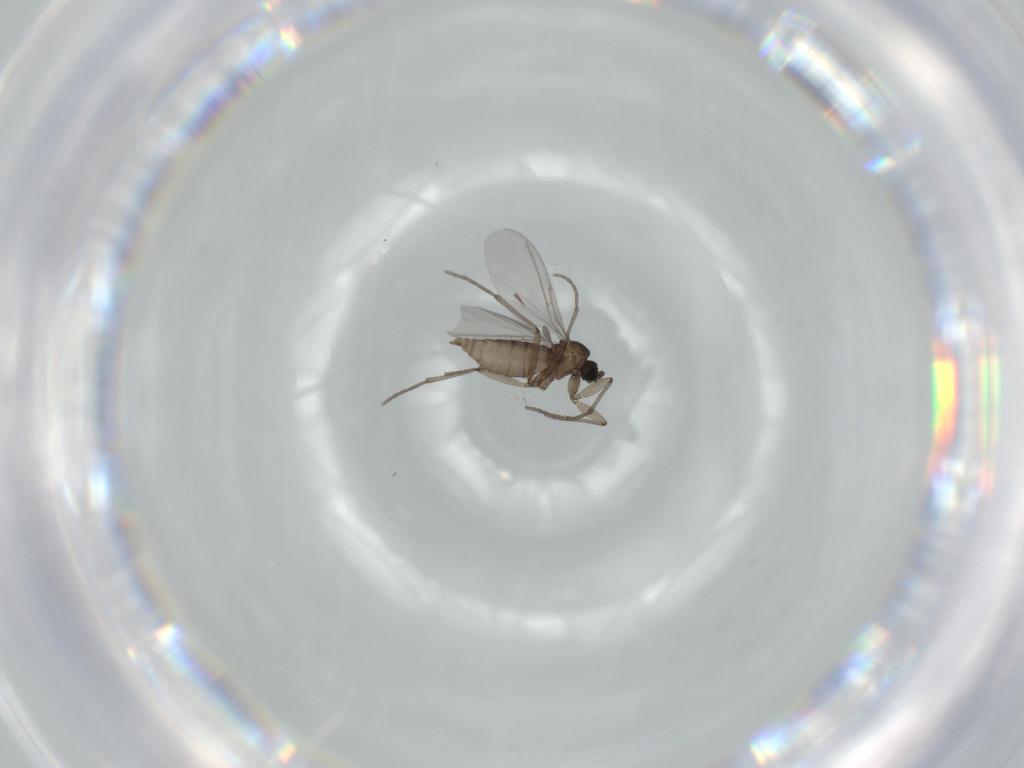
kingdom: Animalia
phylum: Arthropoda
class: Insecta
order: Diptera
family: Sciaridae
